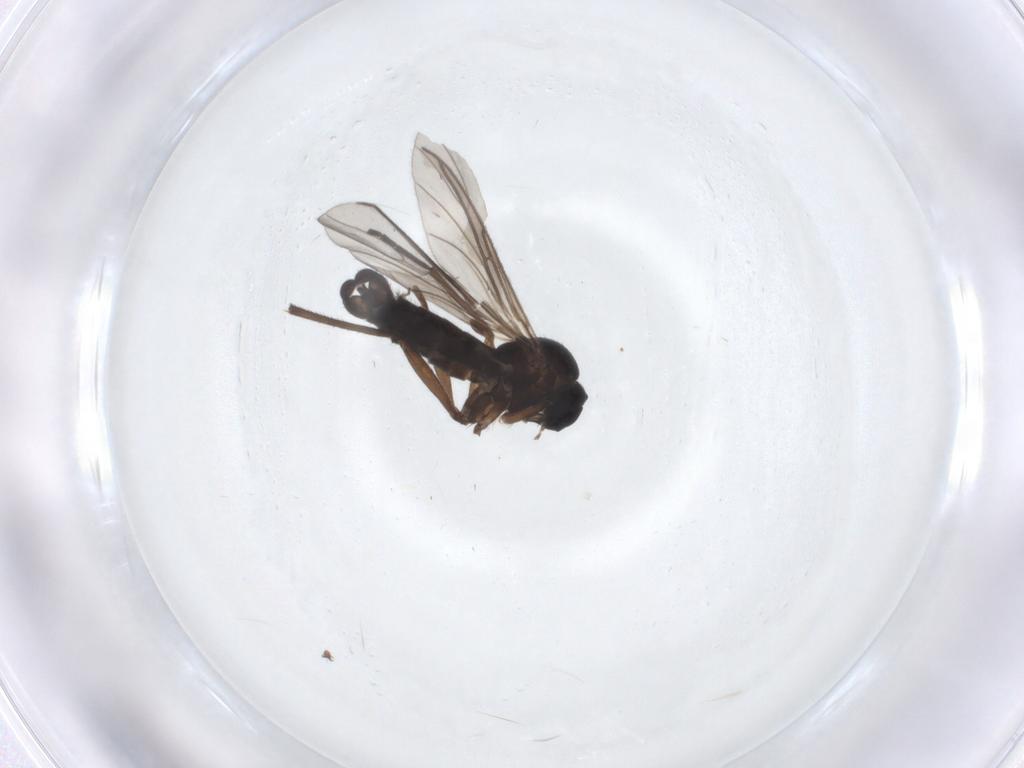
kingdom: Animalia
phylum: Arthropoda
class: Insecta
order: Diptera
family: Chironomidae
